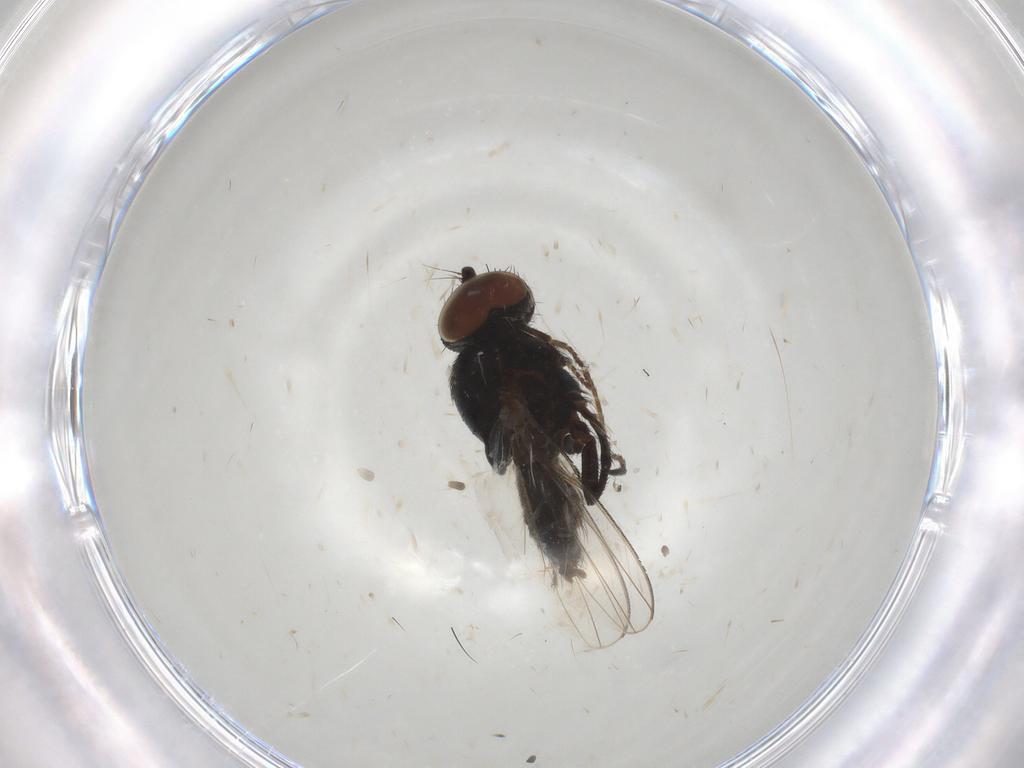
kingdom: Animalia
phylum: Arthropoda
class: Insecta
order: Diptera
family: Milichiidae
